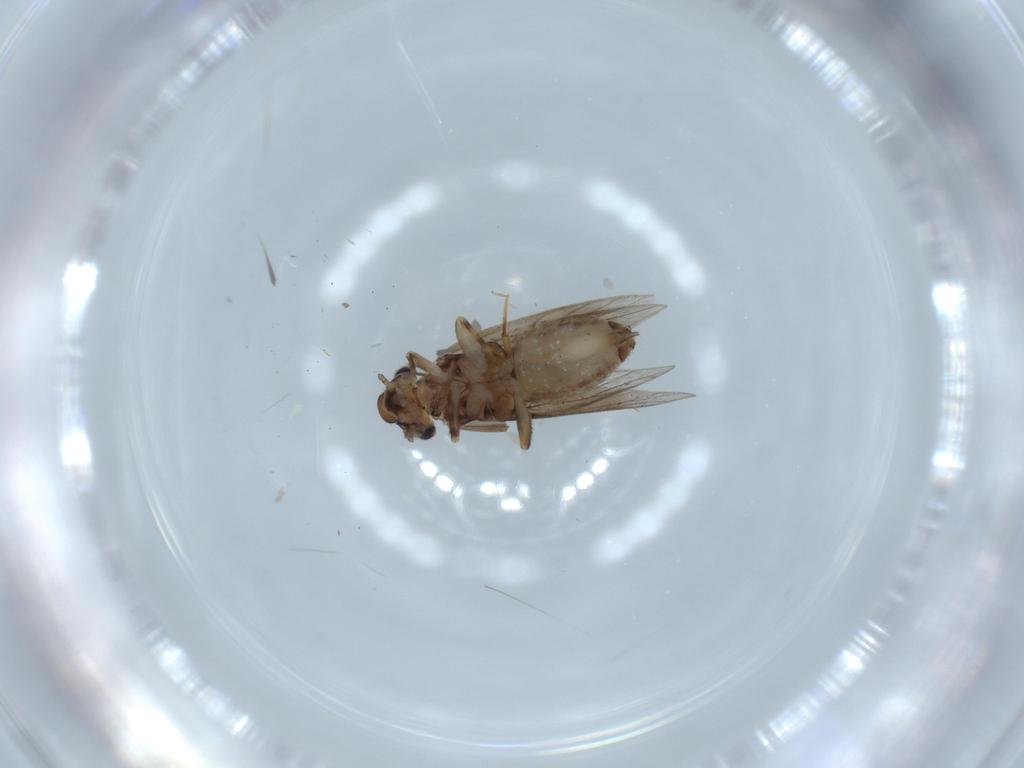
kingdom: Animalia
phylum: Arthropoda
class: Insecta
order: Psocodea
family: Lepidopsocidae
